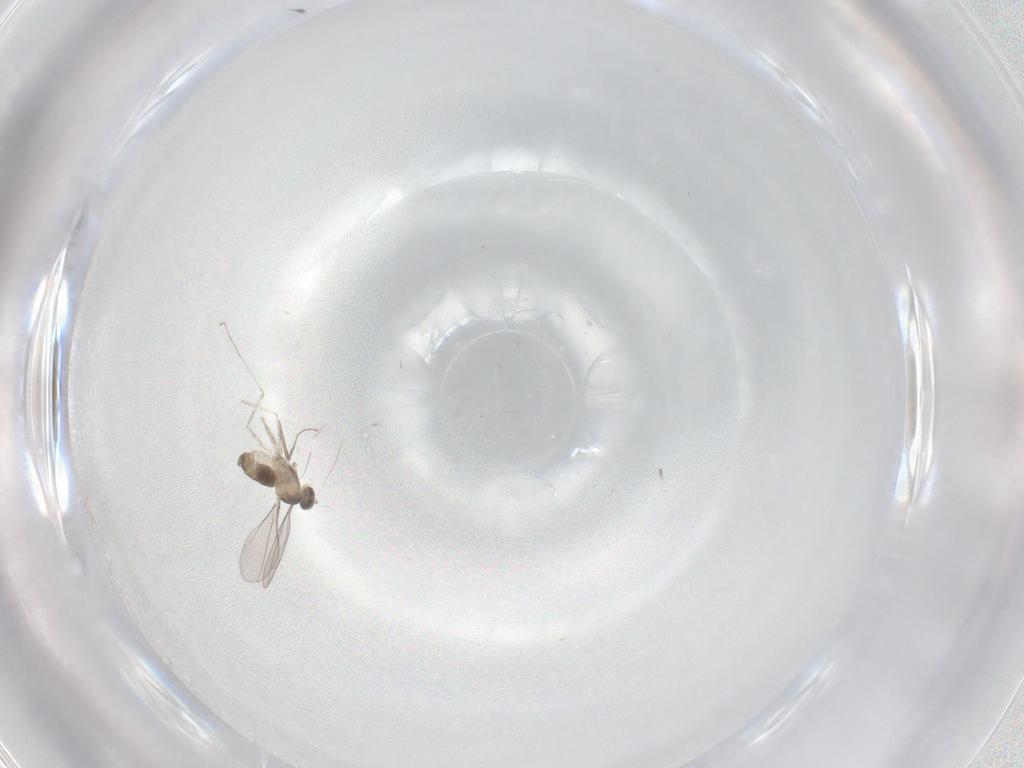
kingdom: Animalia
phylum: Arthropoda
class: Insecta
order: Diptera
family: Cecidomyiidae
